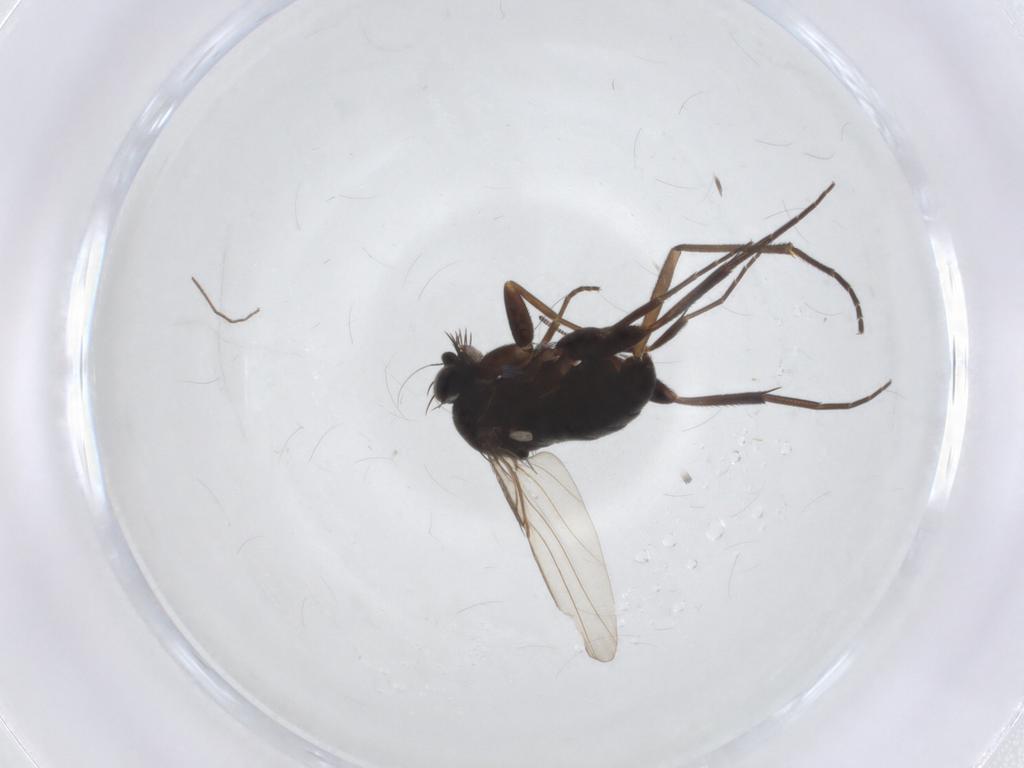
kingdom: Animalia
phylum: Arthropoda
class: Insecta
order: Diptera
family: Phoridae
